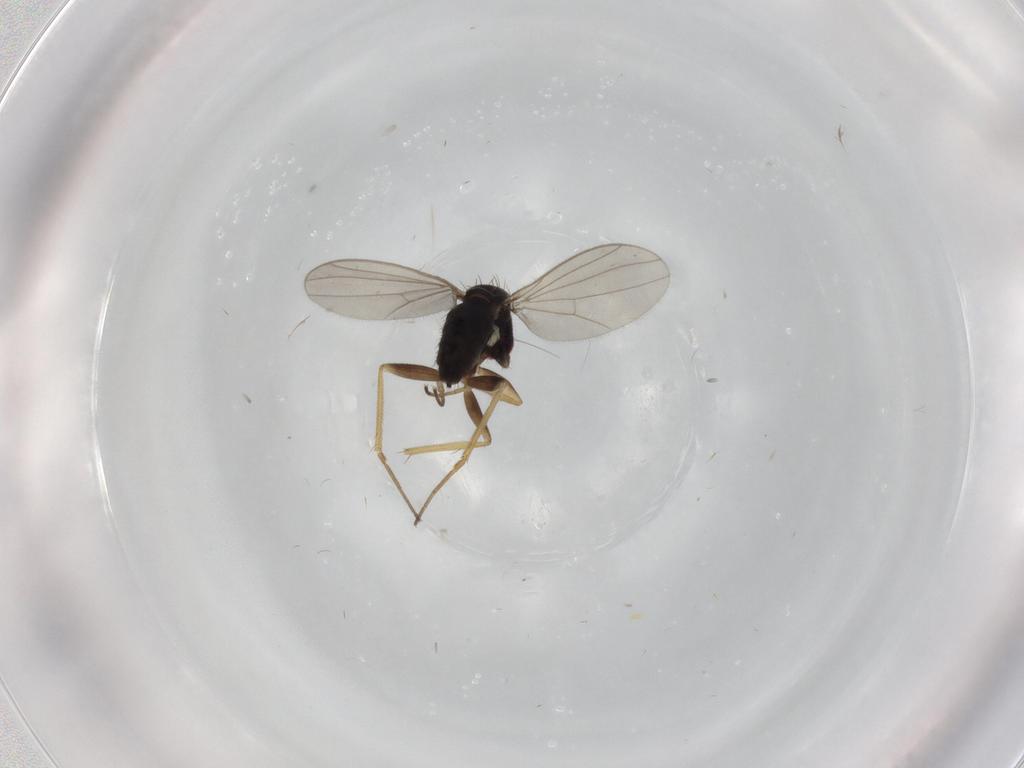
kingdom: Animalia
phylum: Arthropoda
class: Insecta
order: Diptera
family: Dolichopodidae
